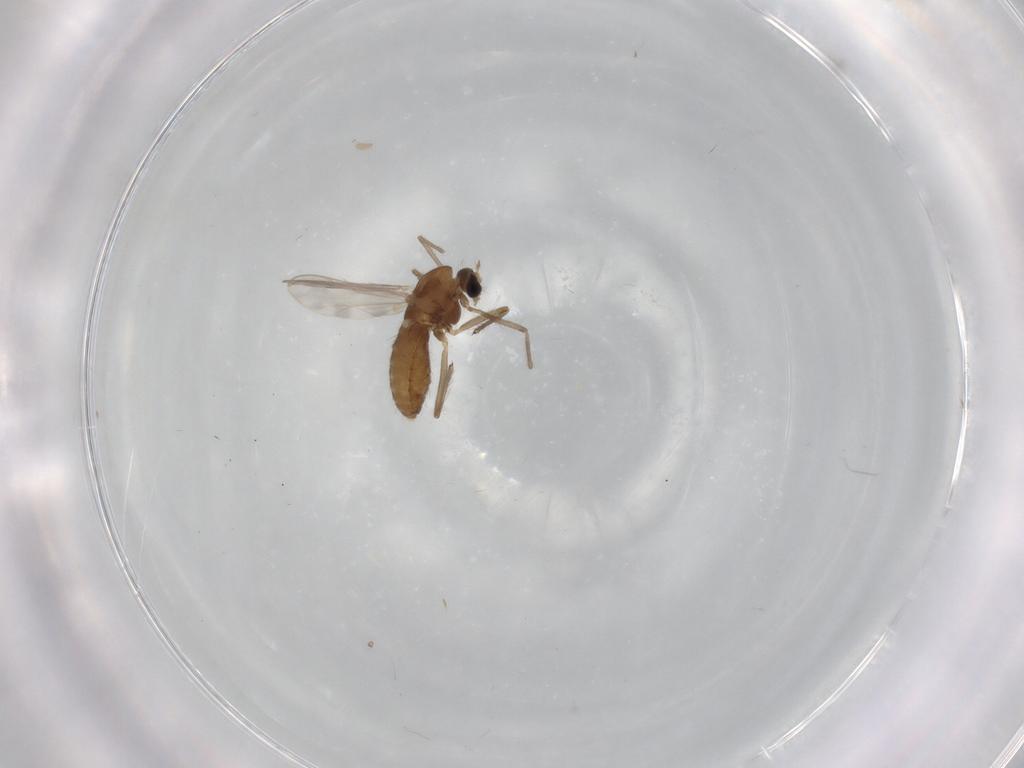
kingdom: Animalia
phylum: Arthropoda
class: Insecta
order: Diptera
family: Chironomidae
